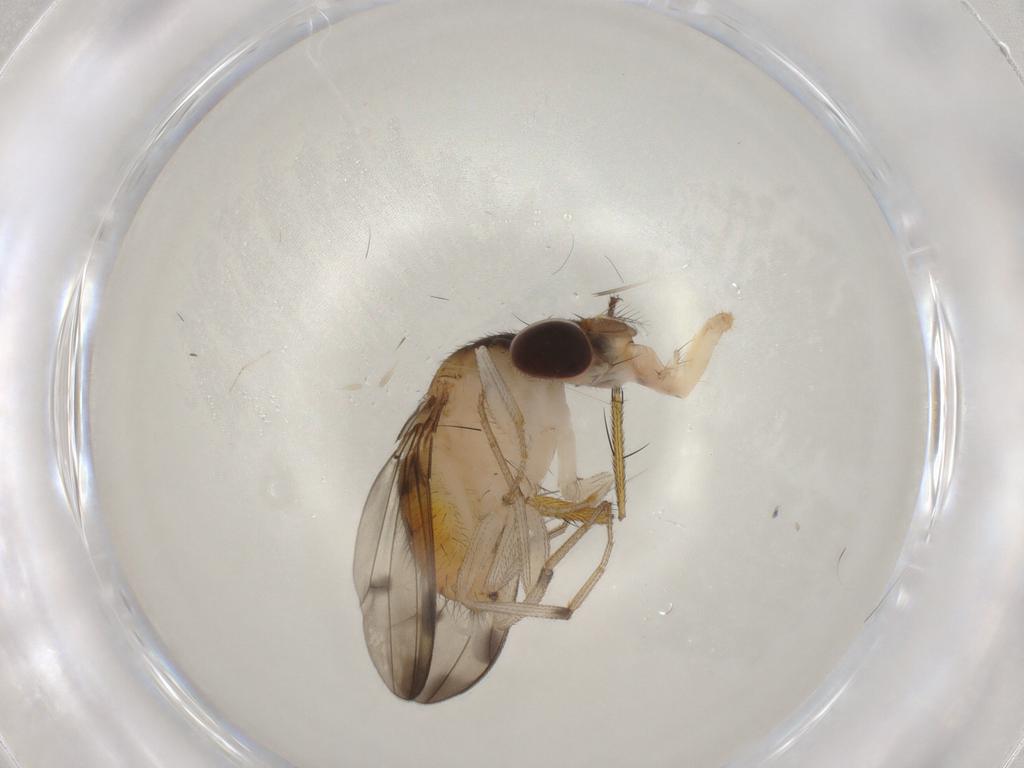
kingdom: Animalia
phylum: Arthropoda
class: Insecta
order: Diptera
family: Drosophilidae
